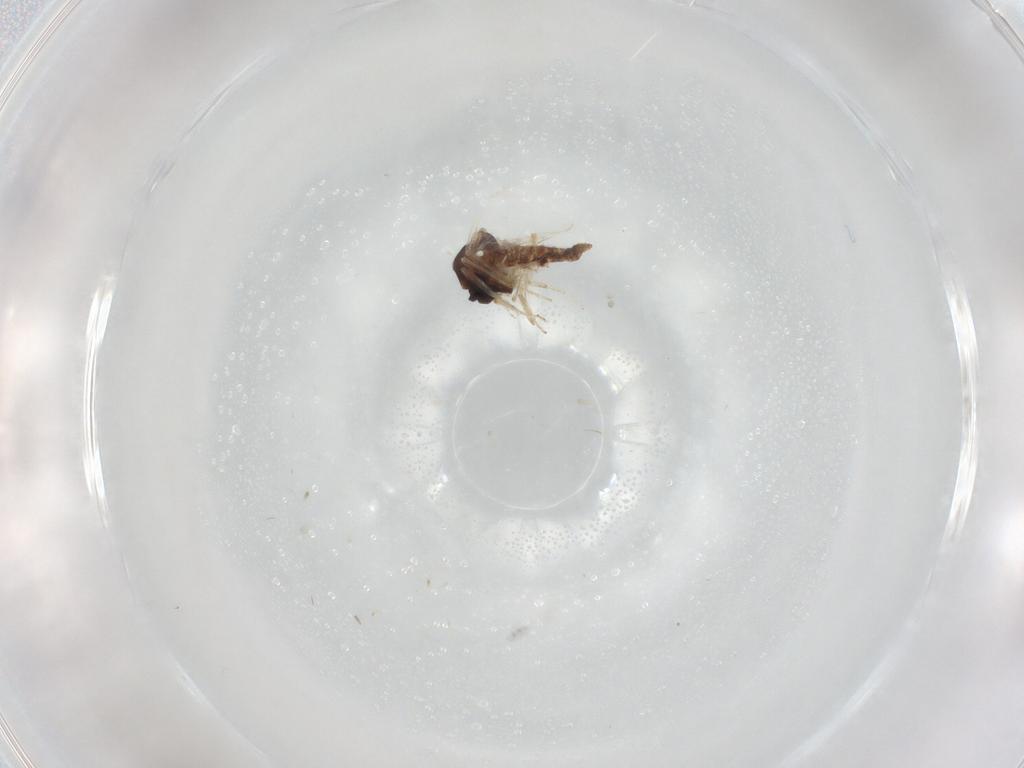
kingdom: Animalia
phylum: Arthropoda
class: Insecta
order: Diptera
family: Ceratopogonidae
